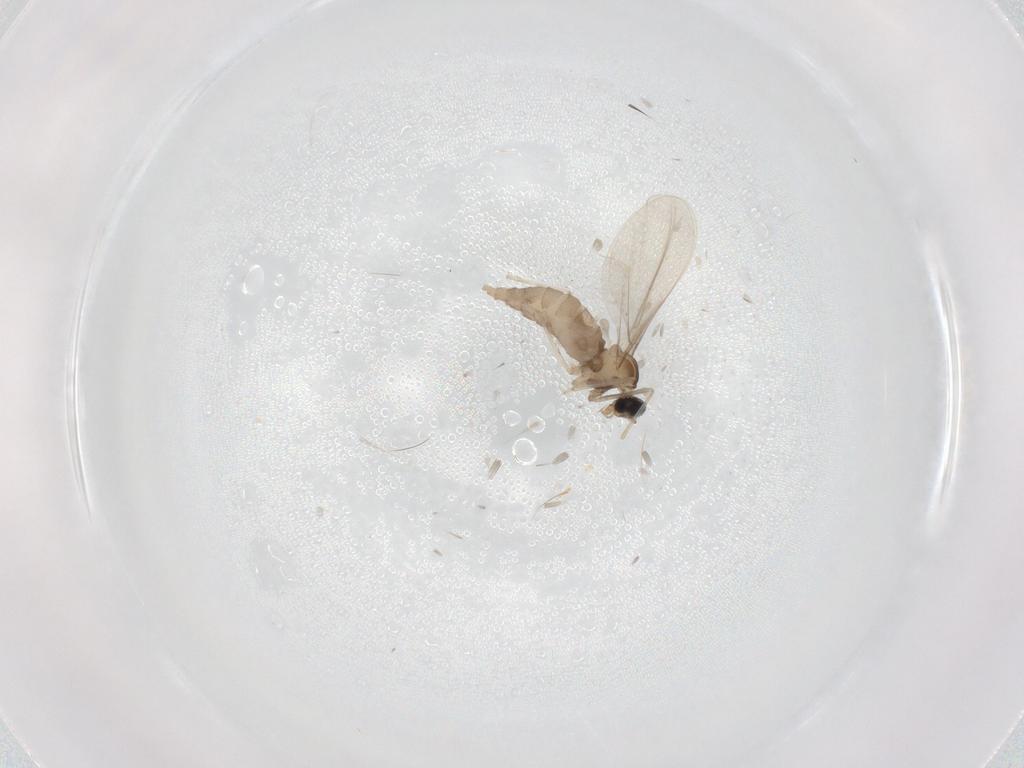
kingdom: Animalia
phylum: Arthropoda
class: Insecta
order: Diptera
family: Cecidomyiidae
